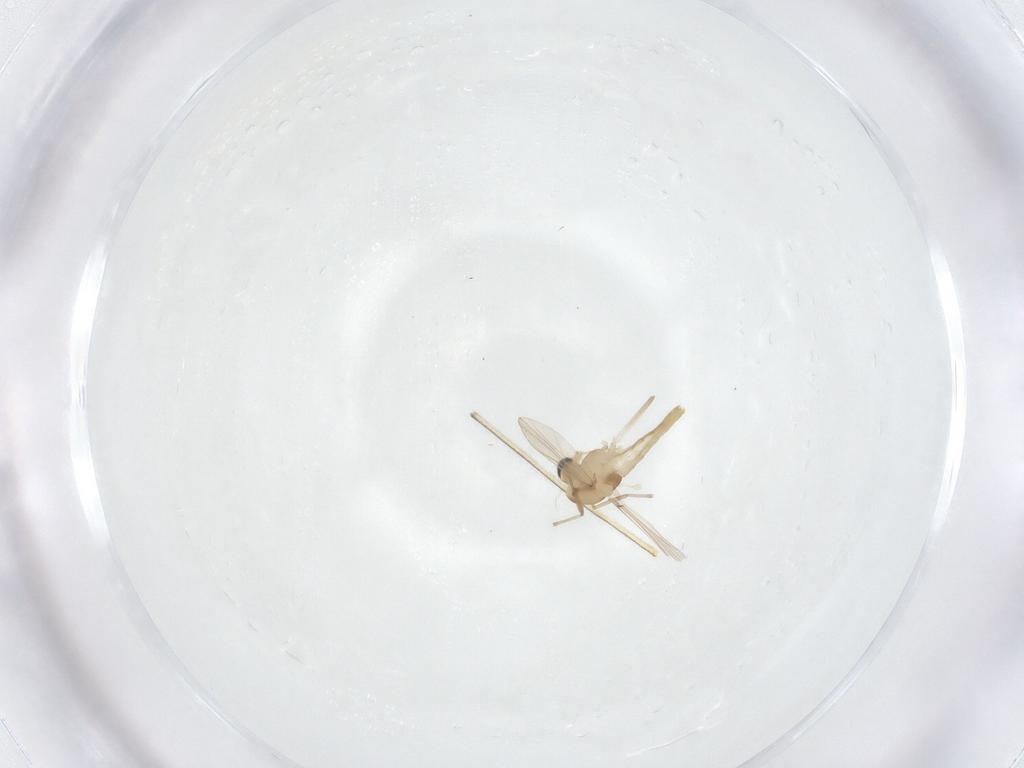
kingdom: Animalia
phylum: Arthropoda
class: Insecta
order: Diptera
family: Chironomidae
